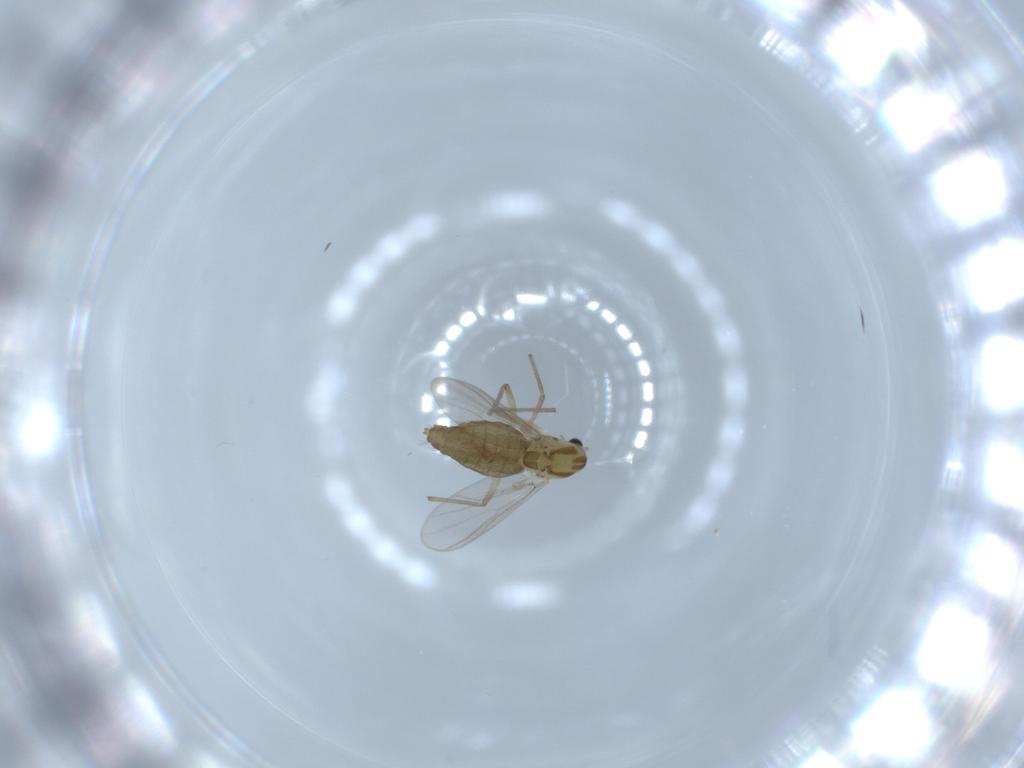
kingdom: Animalia
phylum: Arthropoda
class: Insecta
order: Diptera
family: Chironomidae
